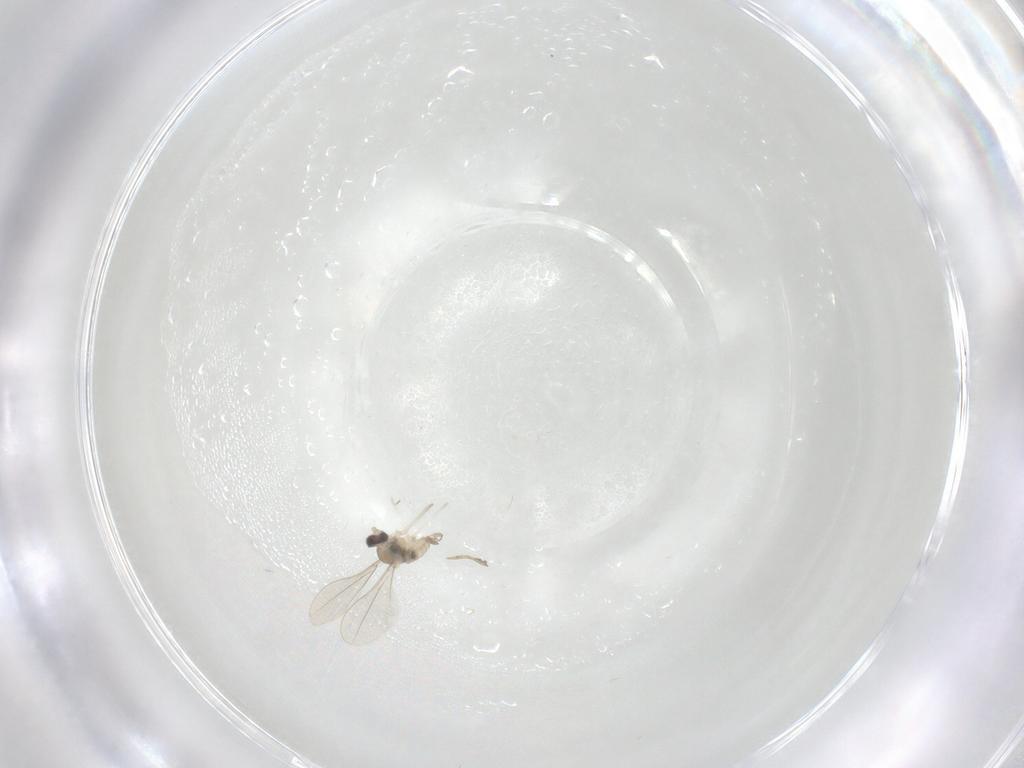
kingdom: Animalia
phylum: Arthropoda
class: Insecta
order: Diptera
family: Cecidomyiidae
